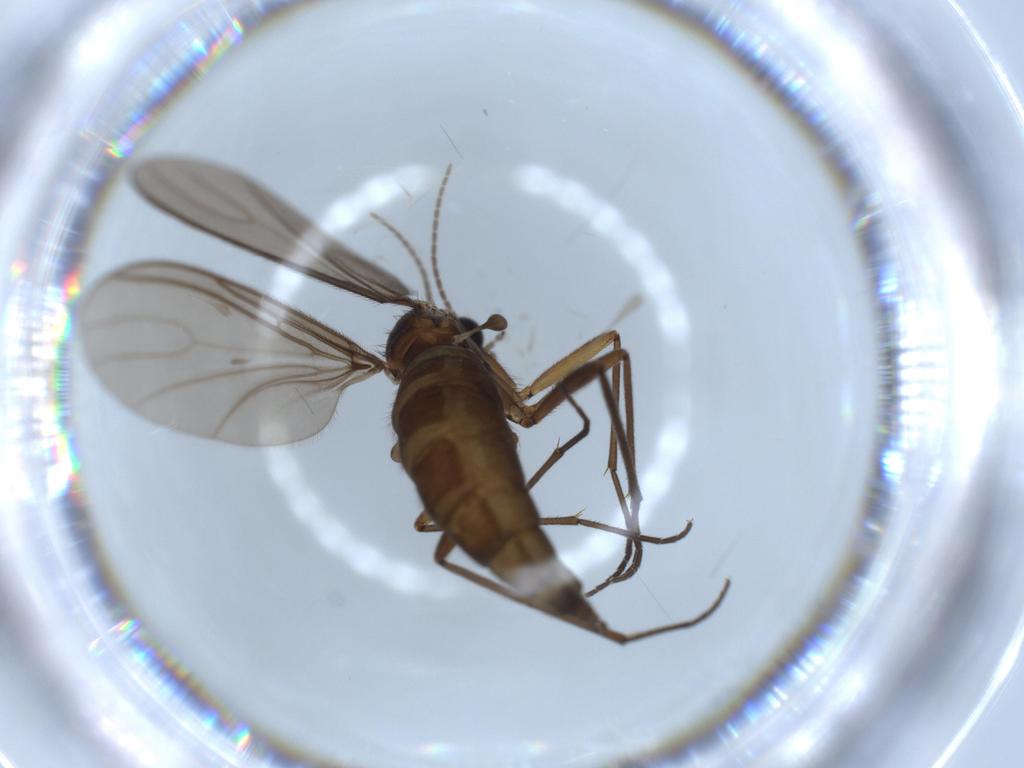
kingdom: Animalia
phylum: Arthropoda
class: Insecta
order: Diptera
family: Sciaridae
